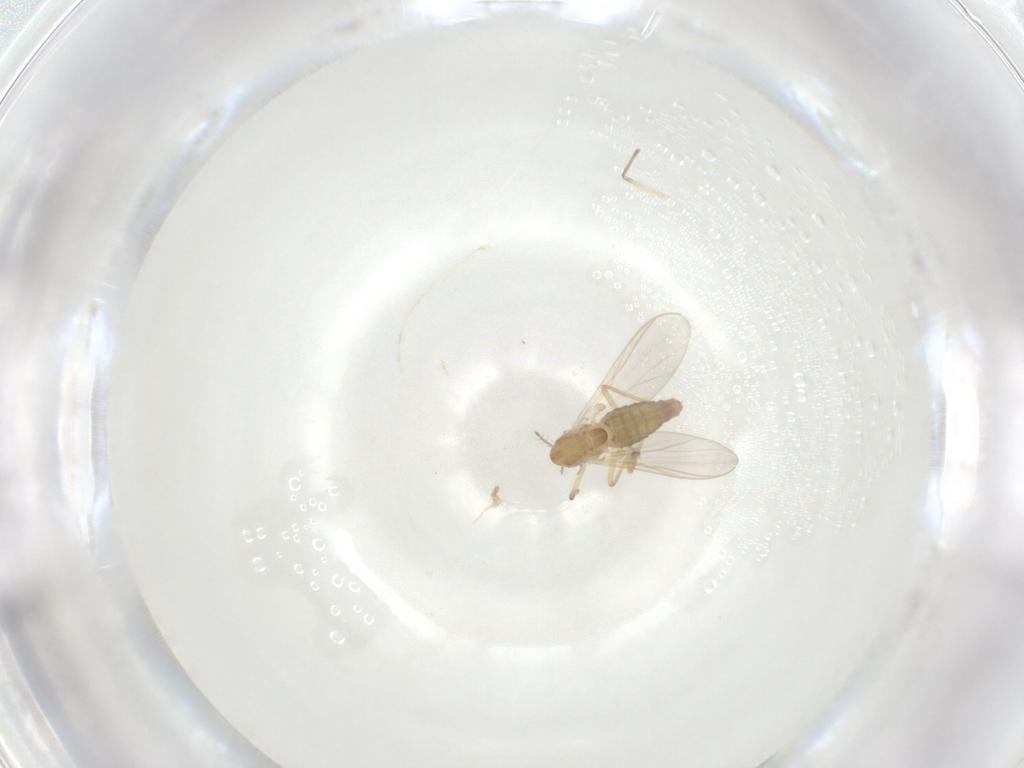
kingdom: Animalia
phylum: Arthropoda
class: Insecta
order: Diptera
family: Chironomidae
